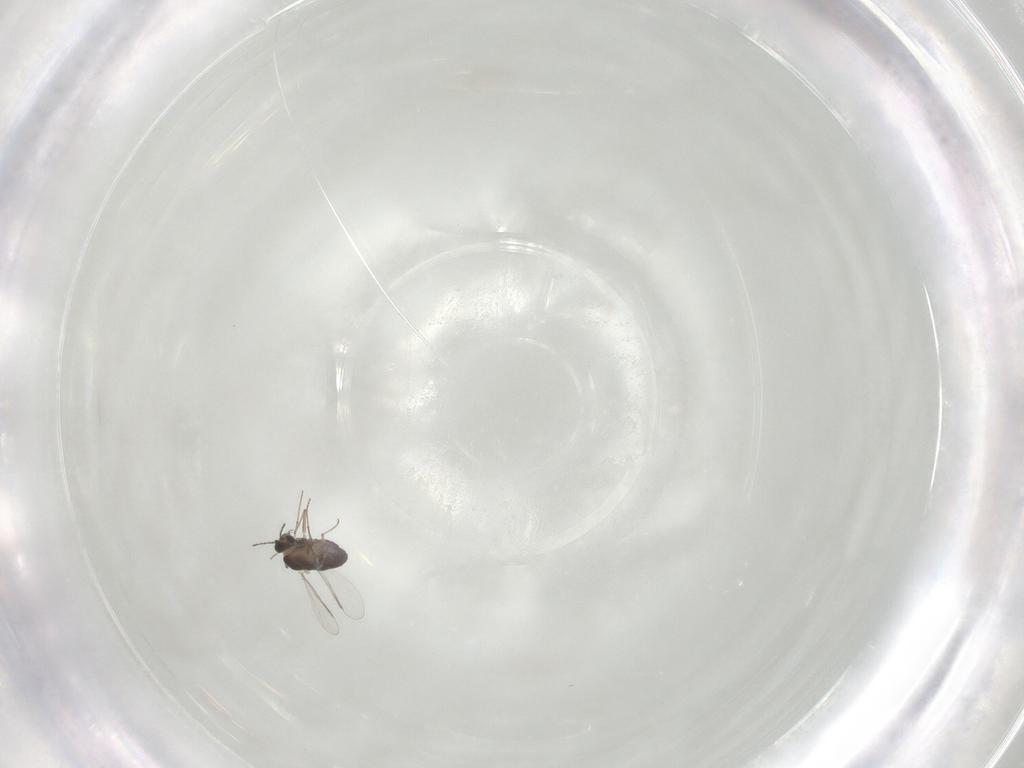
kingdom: Animalia
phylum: Arthropoda
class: Insecta
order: Diptera
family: Chironomidae
